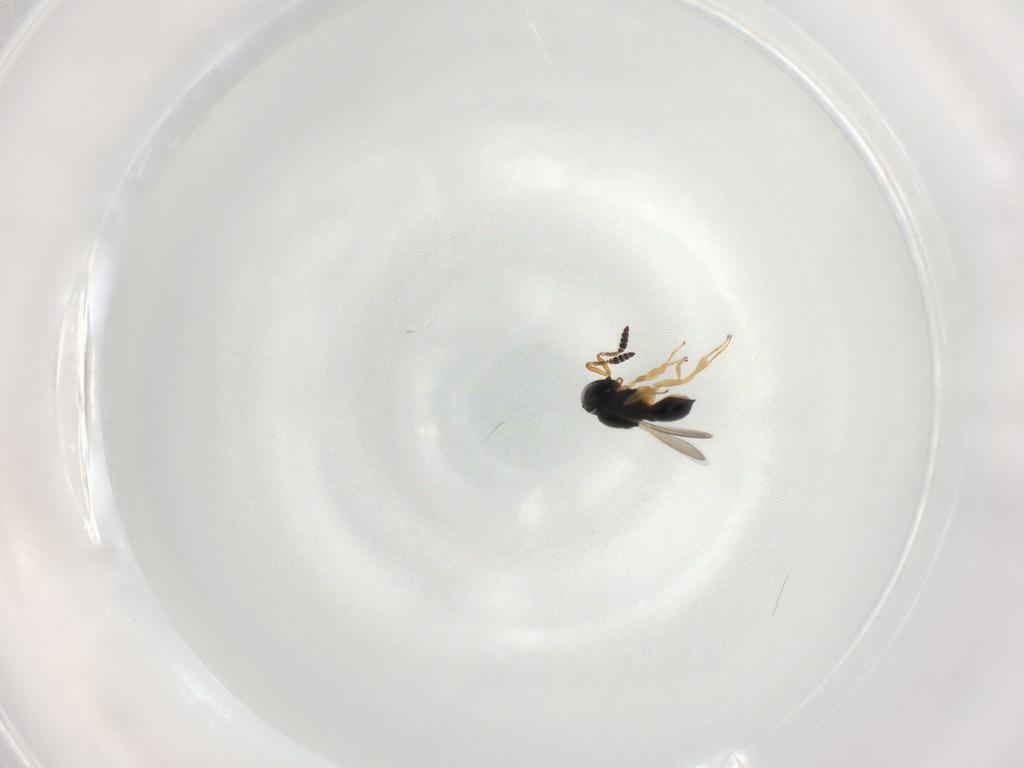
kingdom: Animalia
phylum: Arthropoda
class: Insecta
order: Hymenoptera
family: Scelionidae
